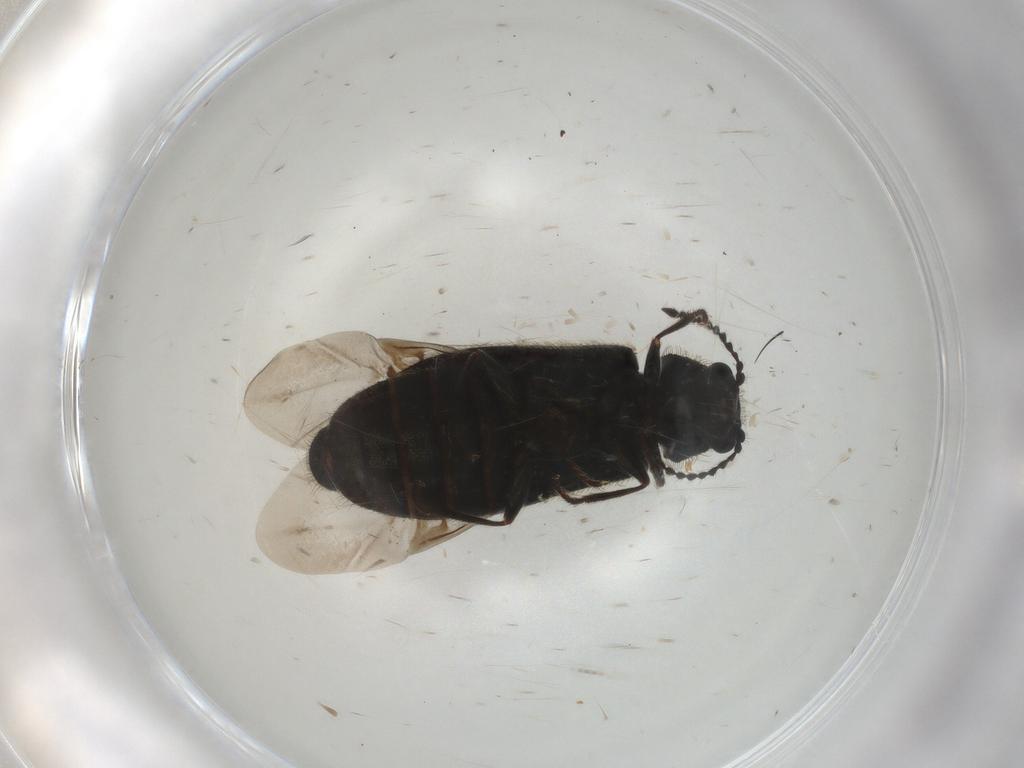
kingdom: Animalia
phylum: Arthropoda
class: Insecta
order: Coleoptera
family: Melyridae
